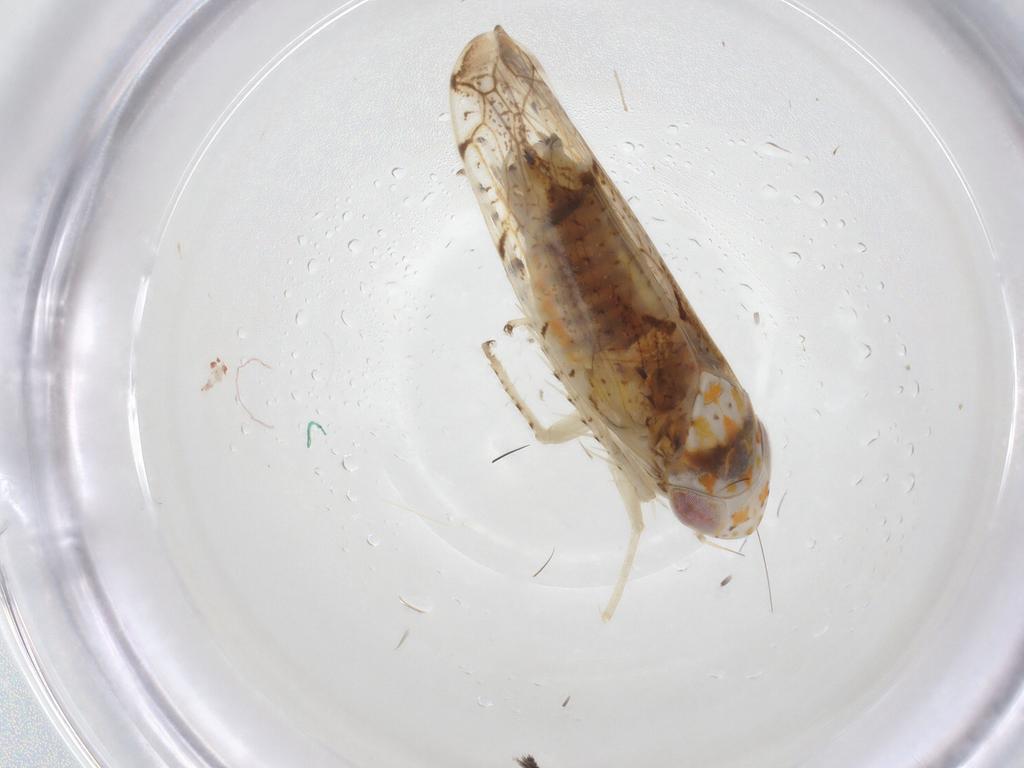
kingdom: Animalia
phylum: Arthropoda
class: Insecta
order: Hemiptera
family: Cicadellidae
